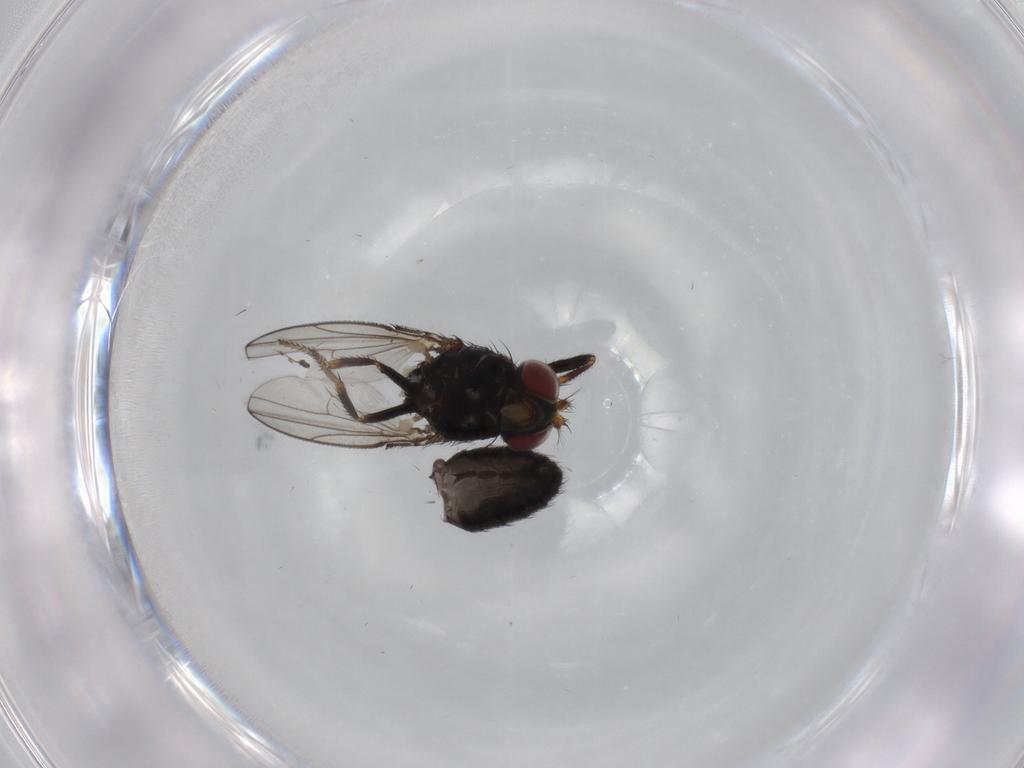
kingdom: Animalia
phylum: Arthropoda
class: Insecta
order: Diptera
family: Ephydridae
